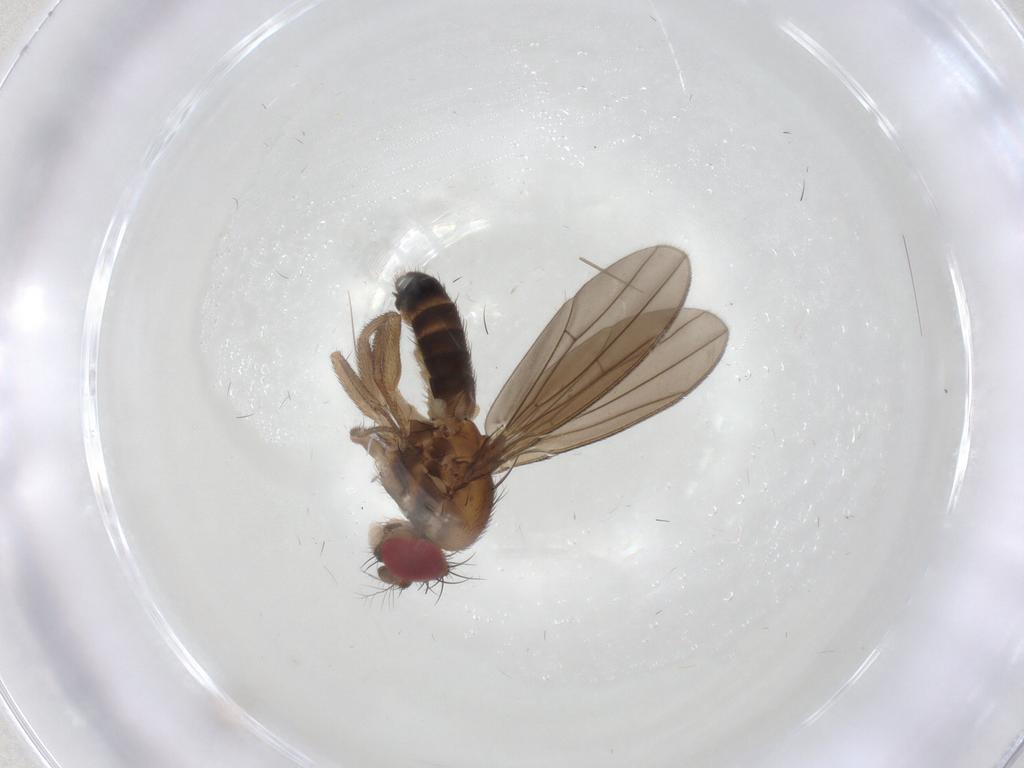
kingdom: Animalia
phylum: Arthropoda
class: Insecta
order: Diptera
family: Drosophilidae
